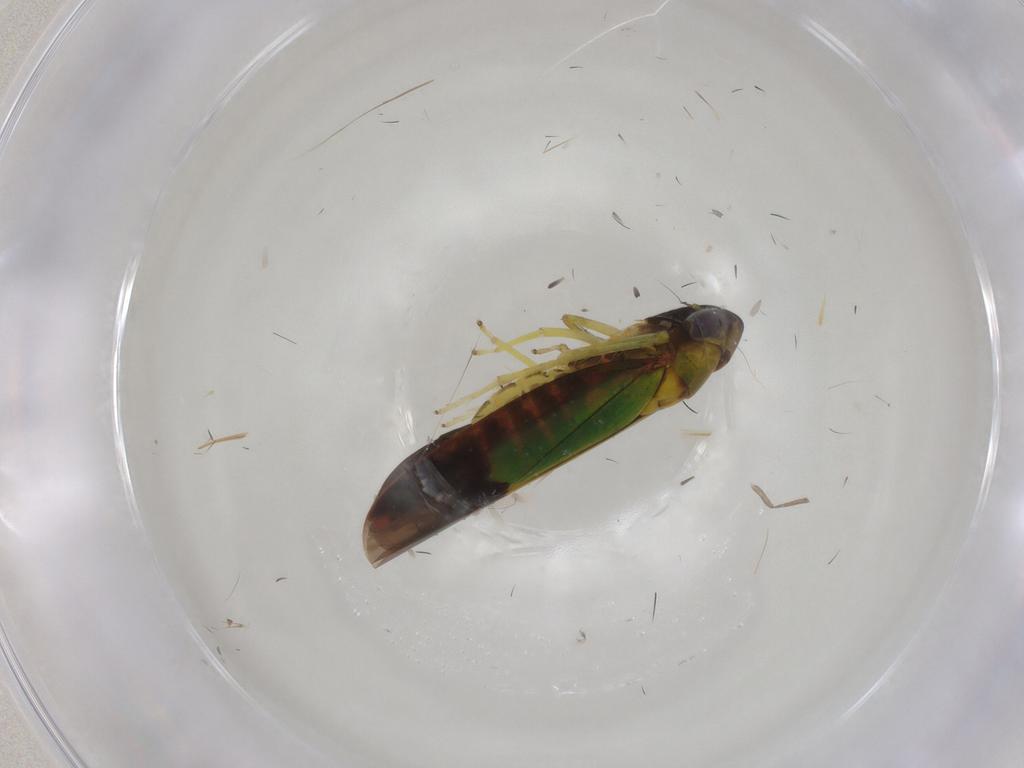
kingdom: Animalia
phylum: Arthropoda
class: Insecta
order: Hemiptera
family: Cicadellidae
